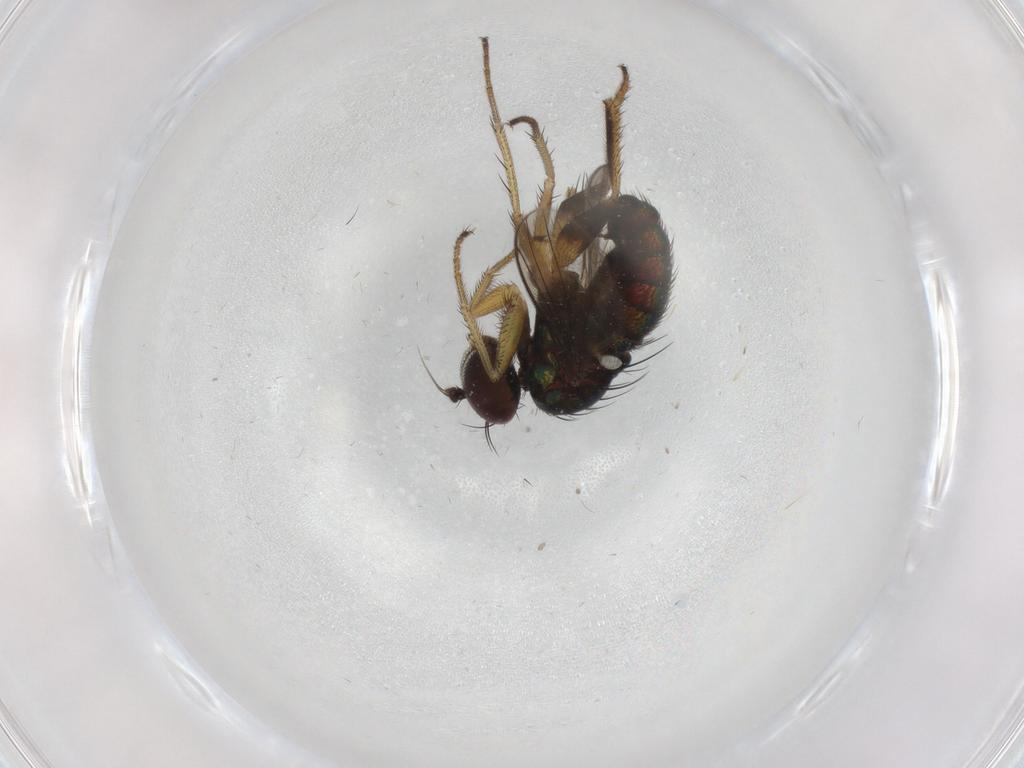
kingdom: Animalia
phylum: Arthropoda
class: Insecta
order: Diptera
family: Dolichopodidae
